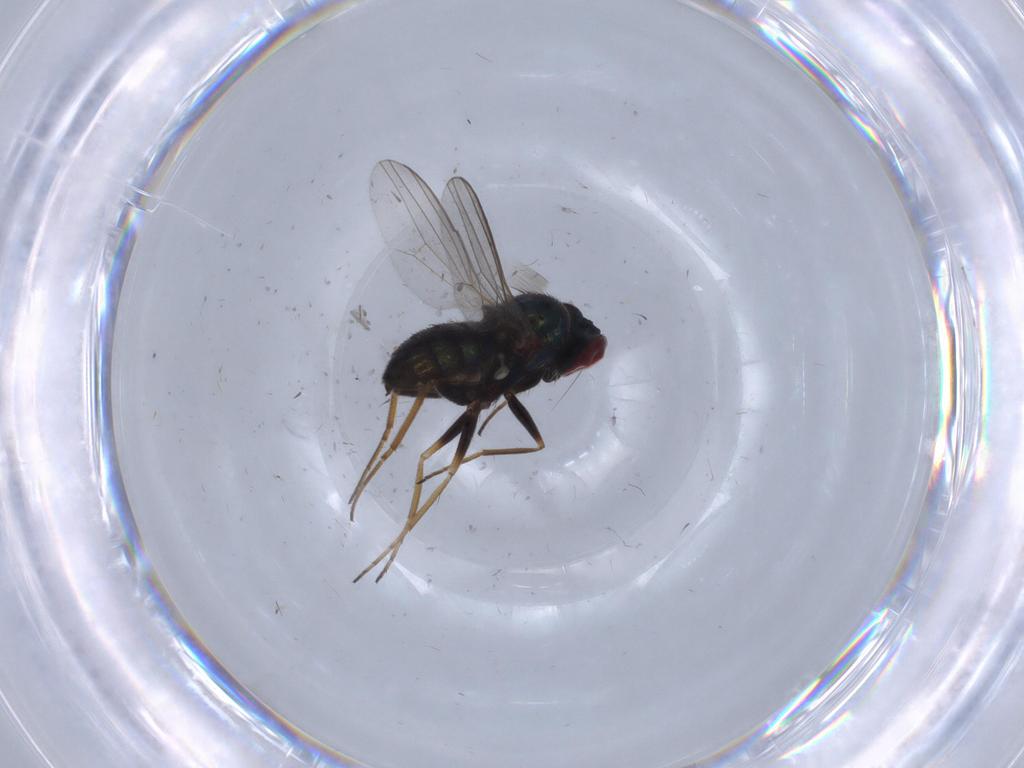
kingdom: Animalia
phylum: Arthropoda
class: Insecta
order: Diptera
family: Dolichopodidae
